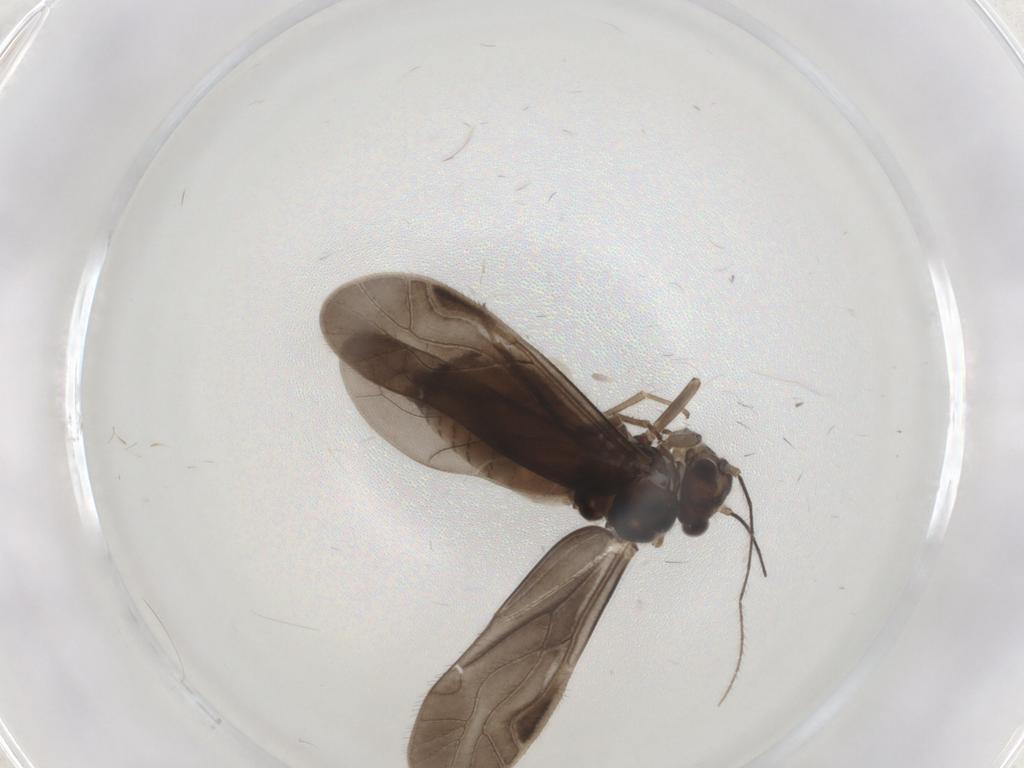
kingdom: Animalia
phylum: Arthropoda
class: Insecta
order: Psocodea
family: Caeciliusidae
